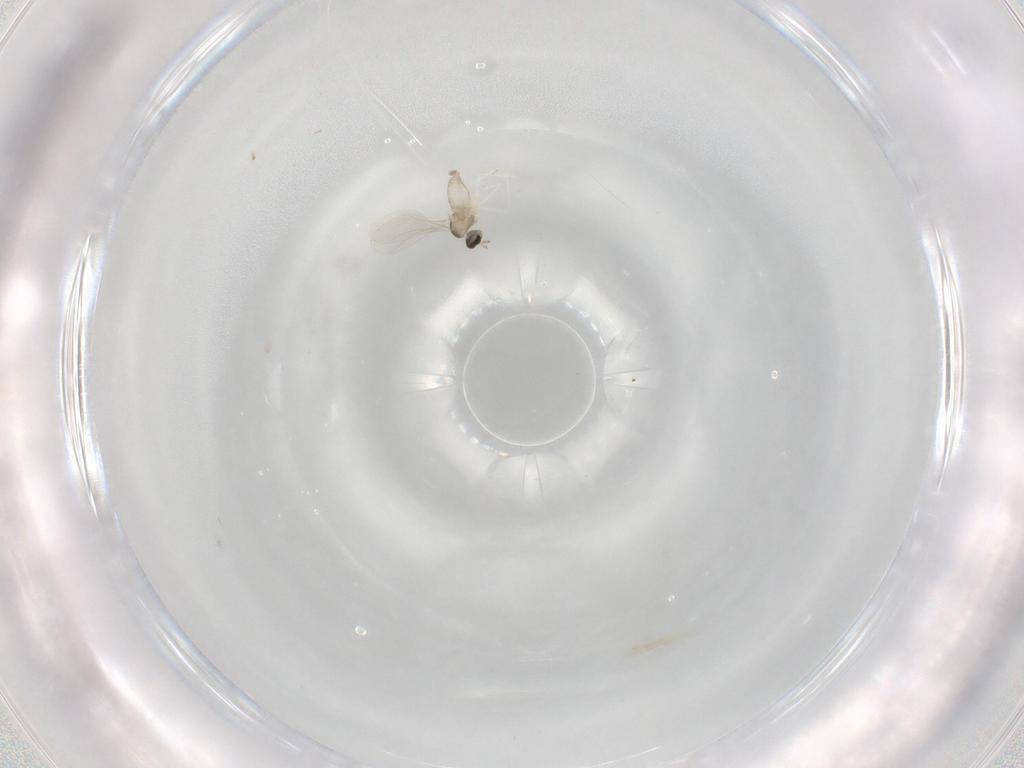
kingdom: Animalia
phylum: Arthropoda
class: Insecta
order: Diptera
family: Cecidomyiidae
